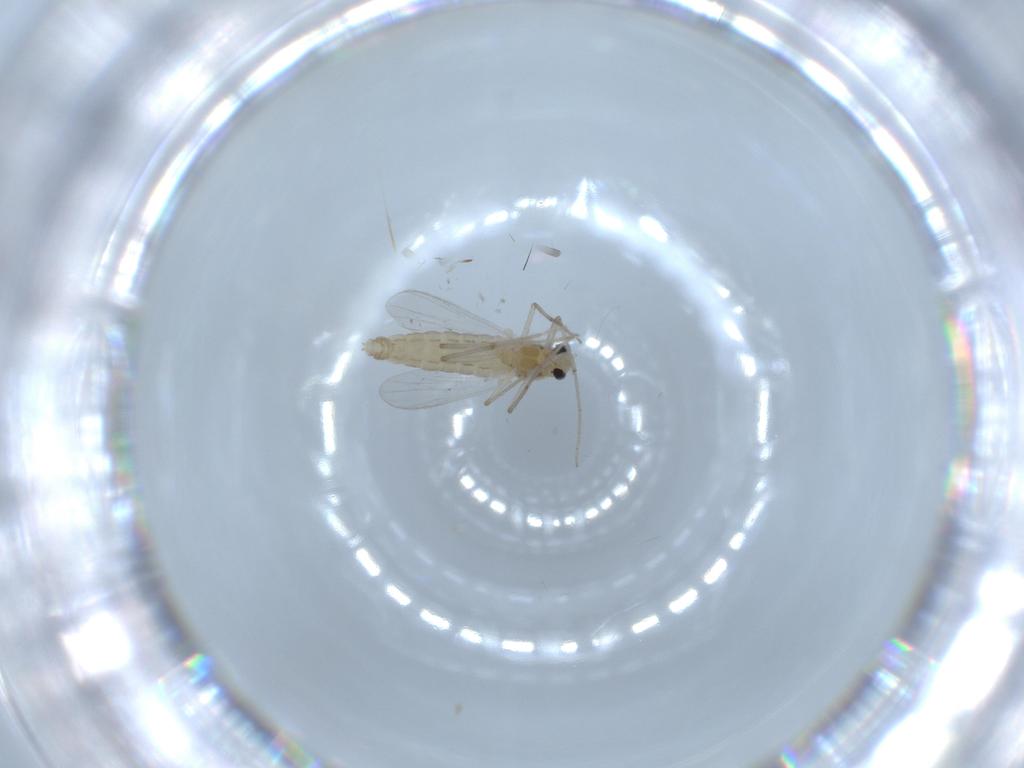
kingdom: Animalia
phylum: Arthropoda
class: Insecta
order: Diptera
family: Chironomidae
